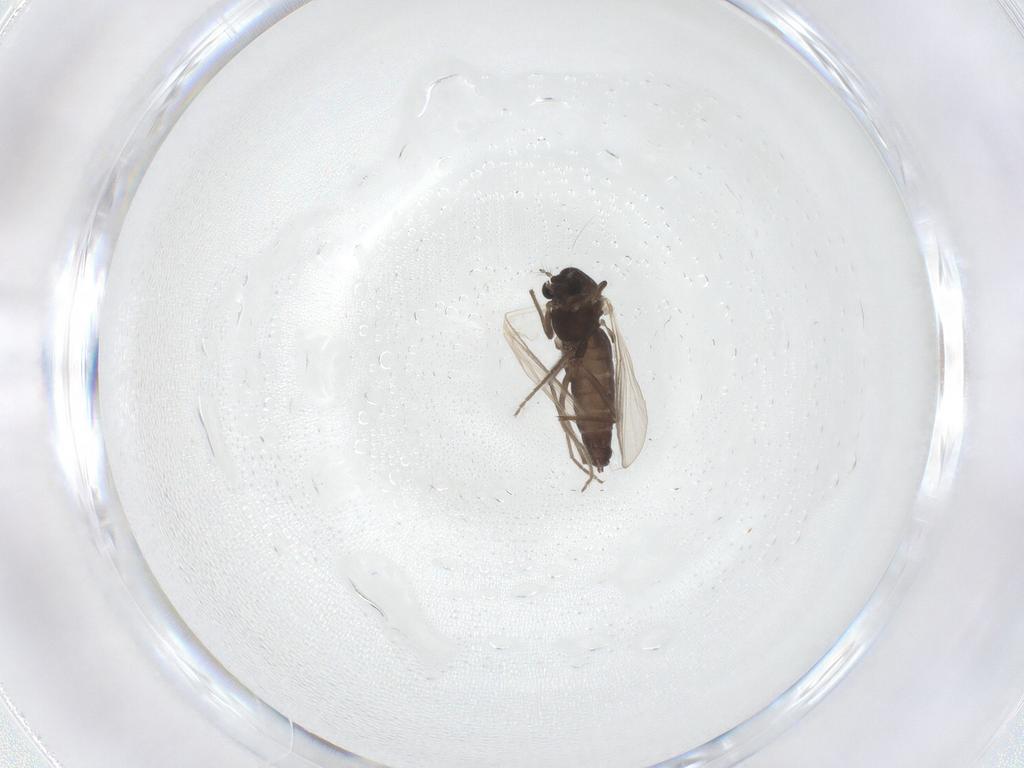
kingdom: Animalia
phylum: Arthropoda
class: Insecta
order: Diptera
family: Chironomidae
